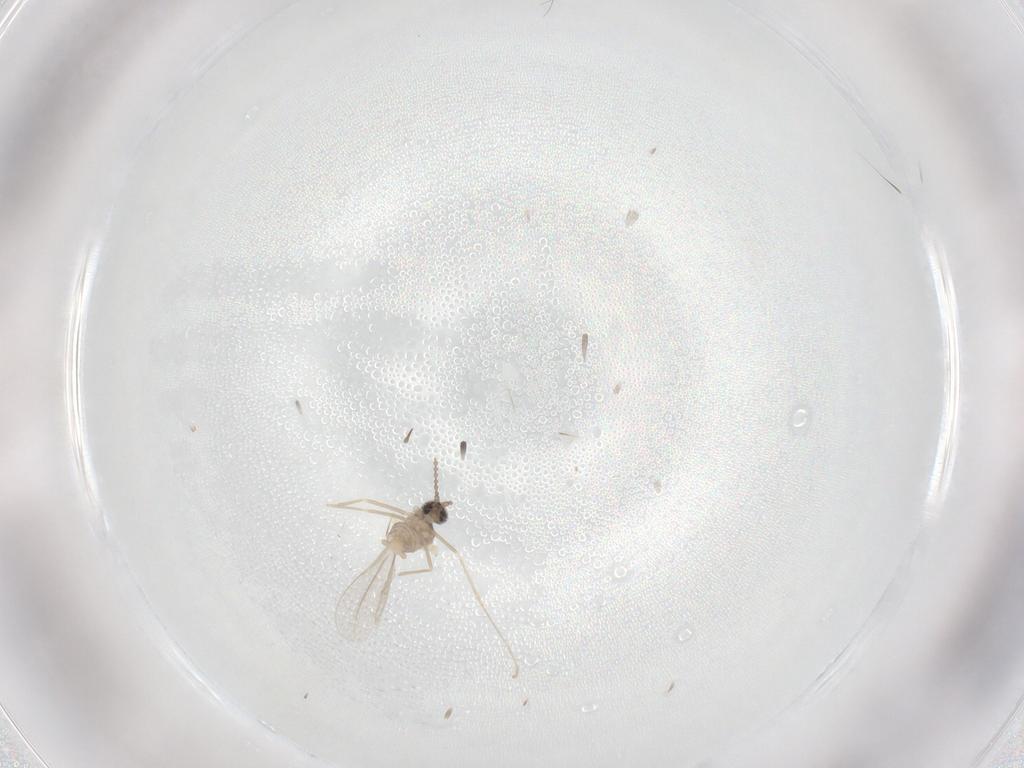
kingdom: Animalia
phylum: Arthropoda
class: Insecta
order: Diptera
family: Cecidomyiidae
